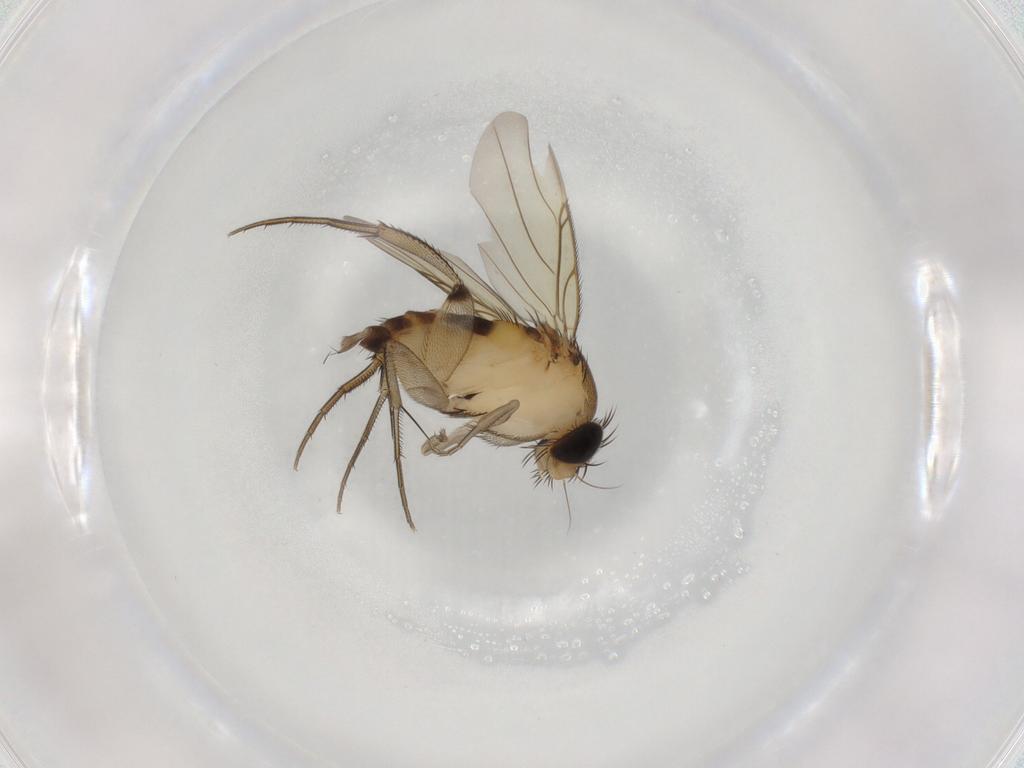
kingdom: Animalia
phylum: Arthropoda
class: Insecta
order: Diptera
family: Phoridae
